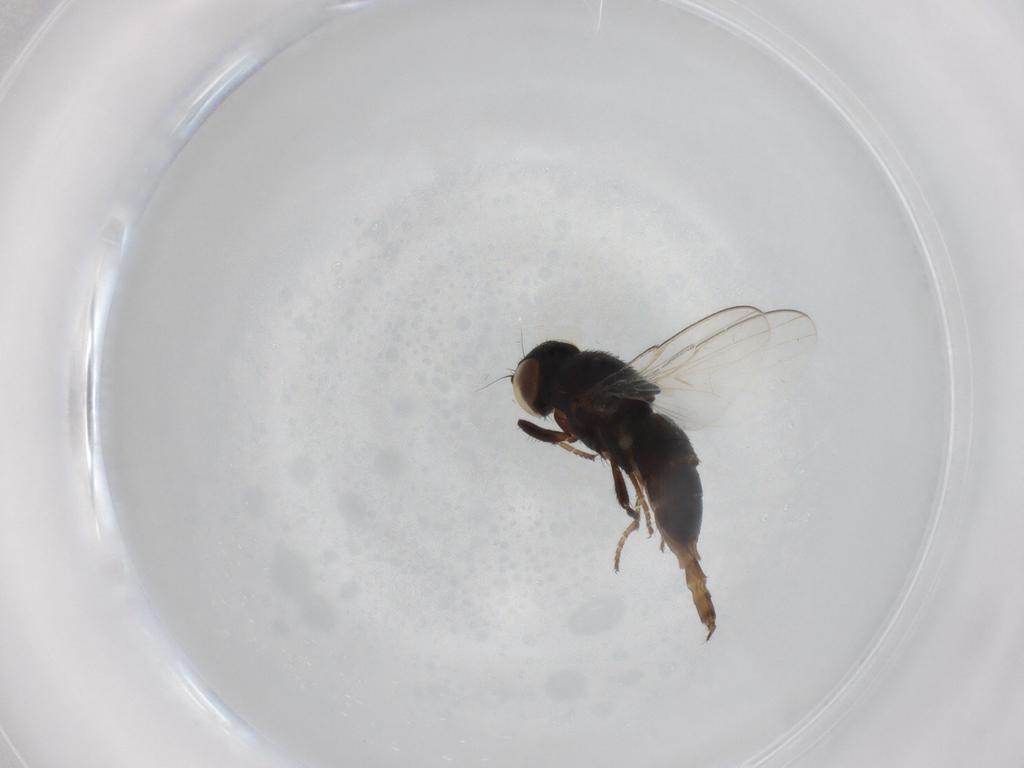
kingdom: Animalia
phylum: Arthropoda
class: Insecta
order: Diptera
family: Milichiidae
